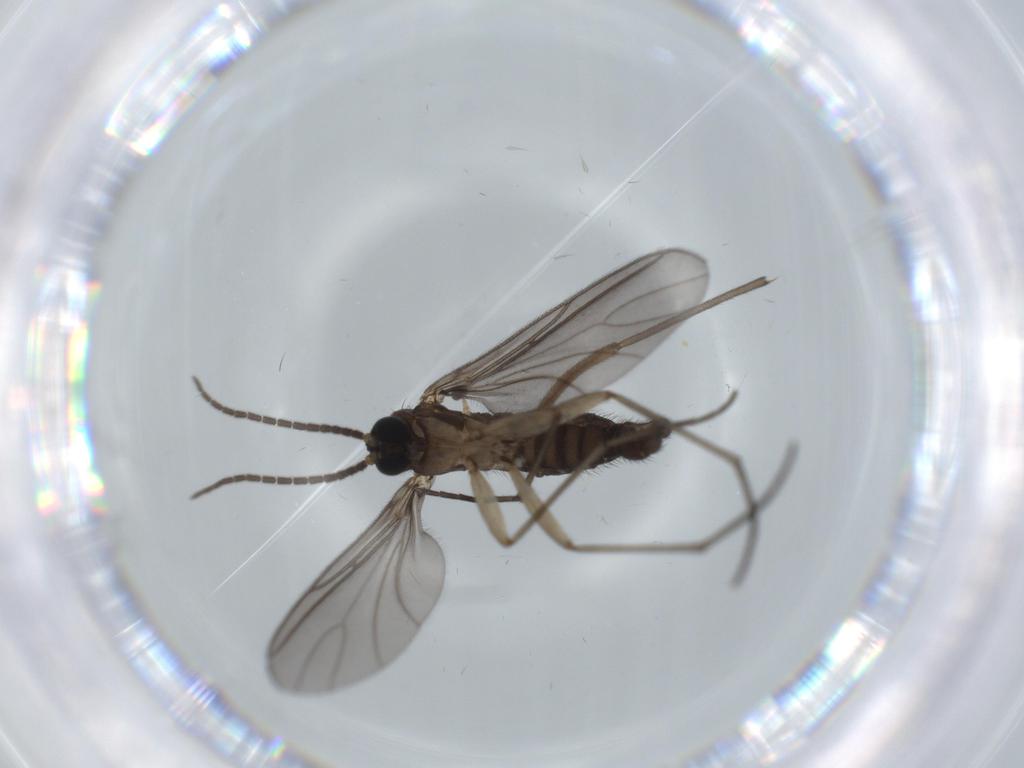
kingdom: Animalia
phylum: Arthropoda
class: Insecta
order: Diptera
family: Sciaridae
